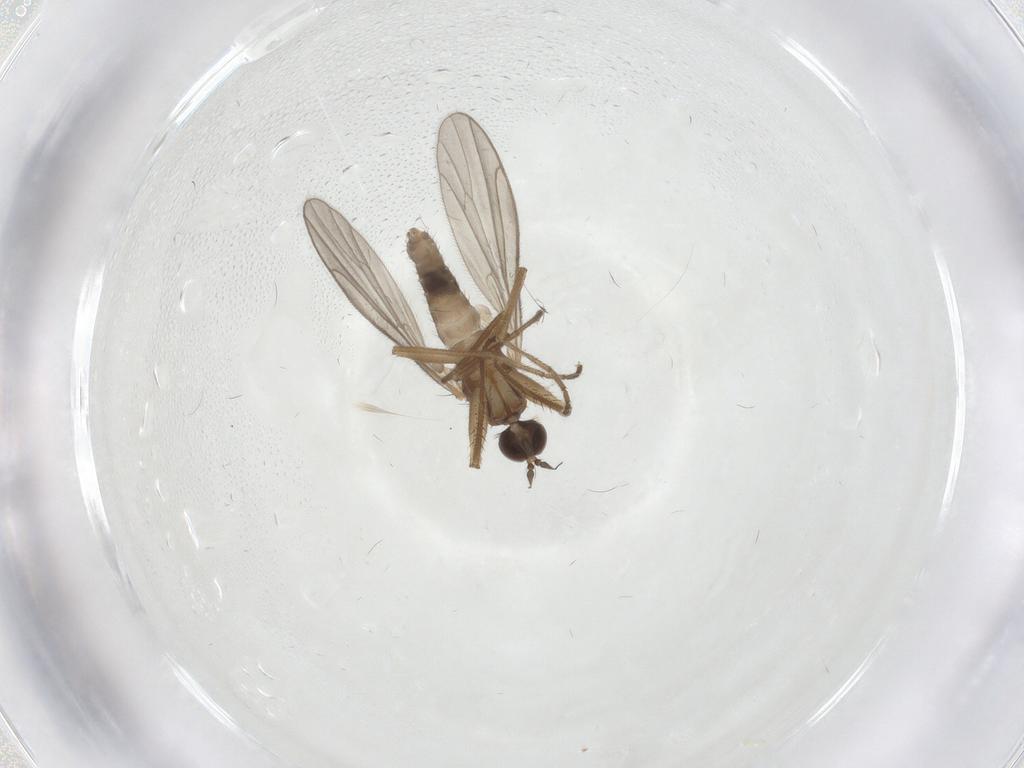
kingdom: Animalia
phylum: Arthropoda
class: Insecta
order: Diptera
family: Empididae
